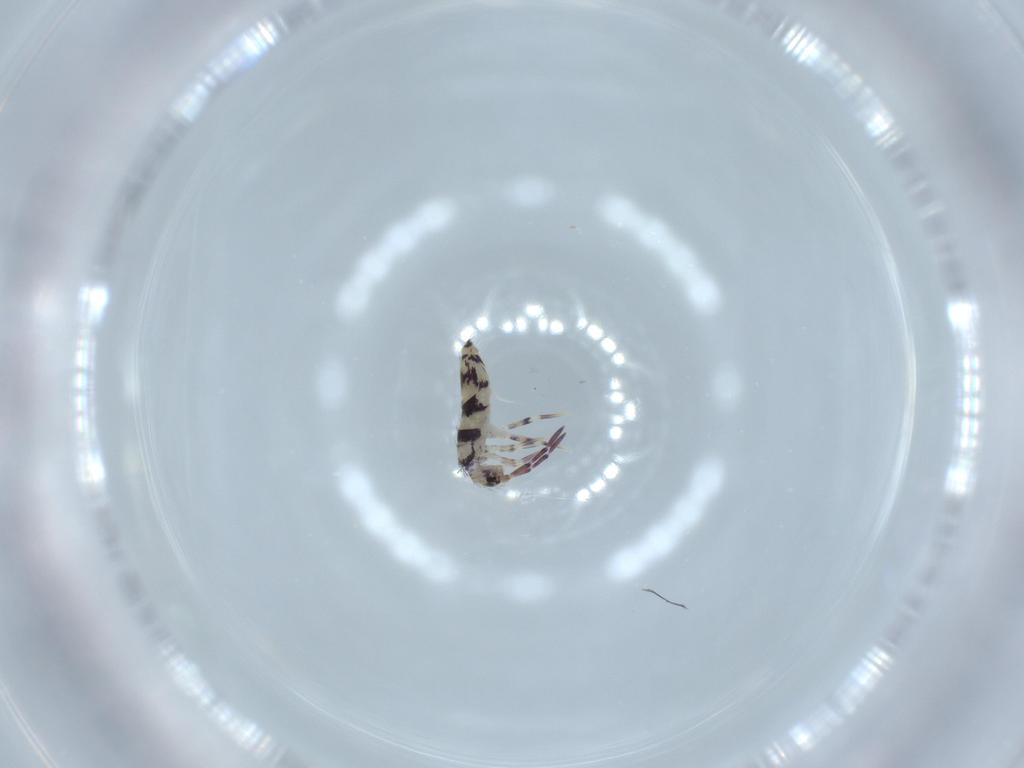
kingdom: Animalia
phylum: Arthropoda
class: Collembola
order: Entomobryomorpha
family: Entomobryidae
